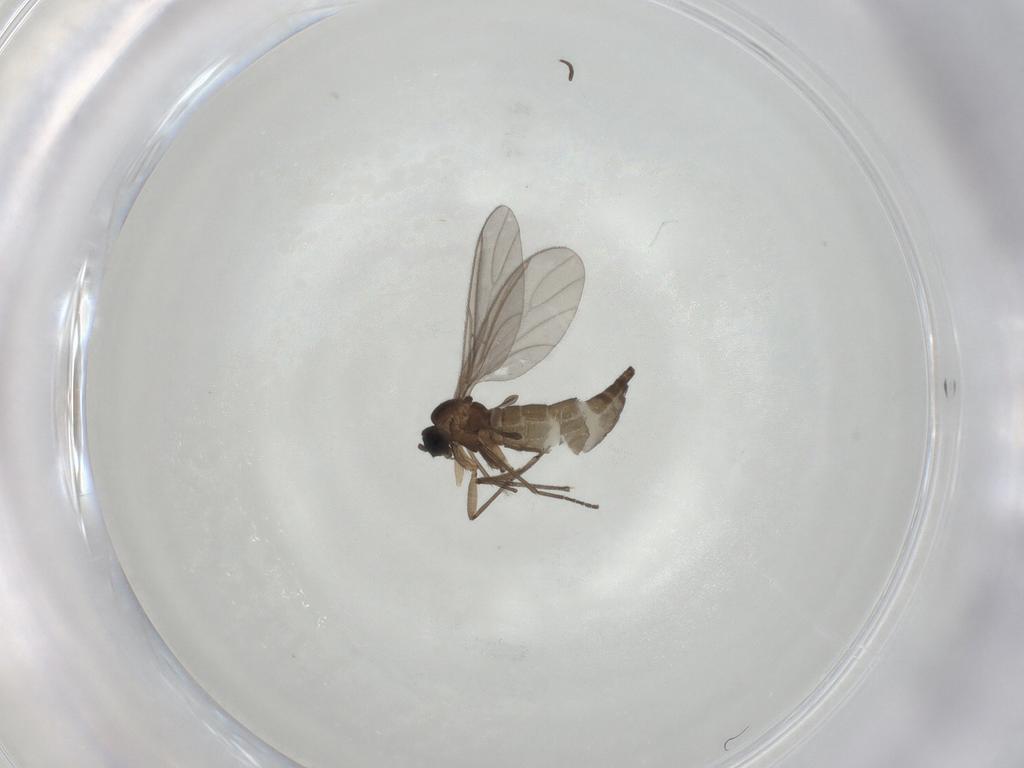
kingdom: Animalia
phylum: Arthropoda
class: Insecta
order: Diptera
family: Sciaridae
